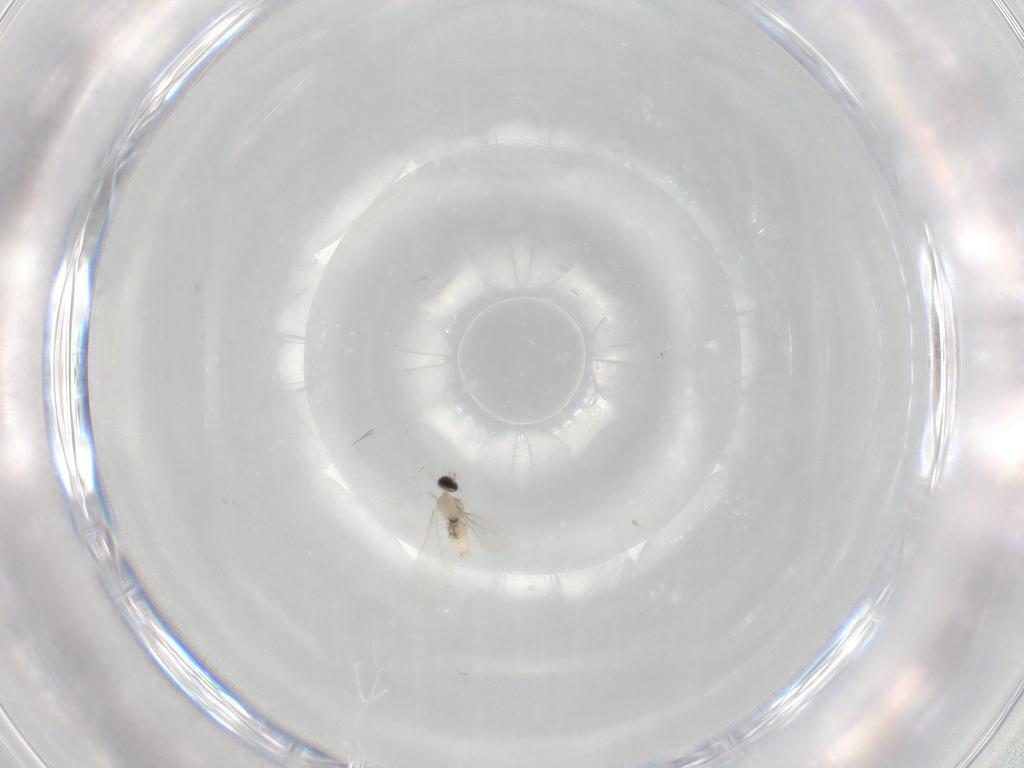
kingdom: Animalia
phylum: Arthropoda
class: Insecta
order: Diptera
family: Cecidomyiidae
